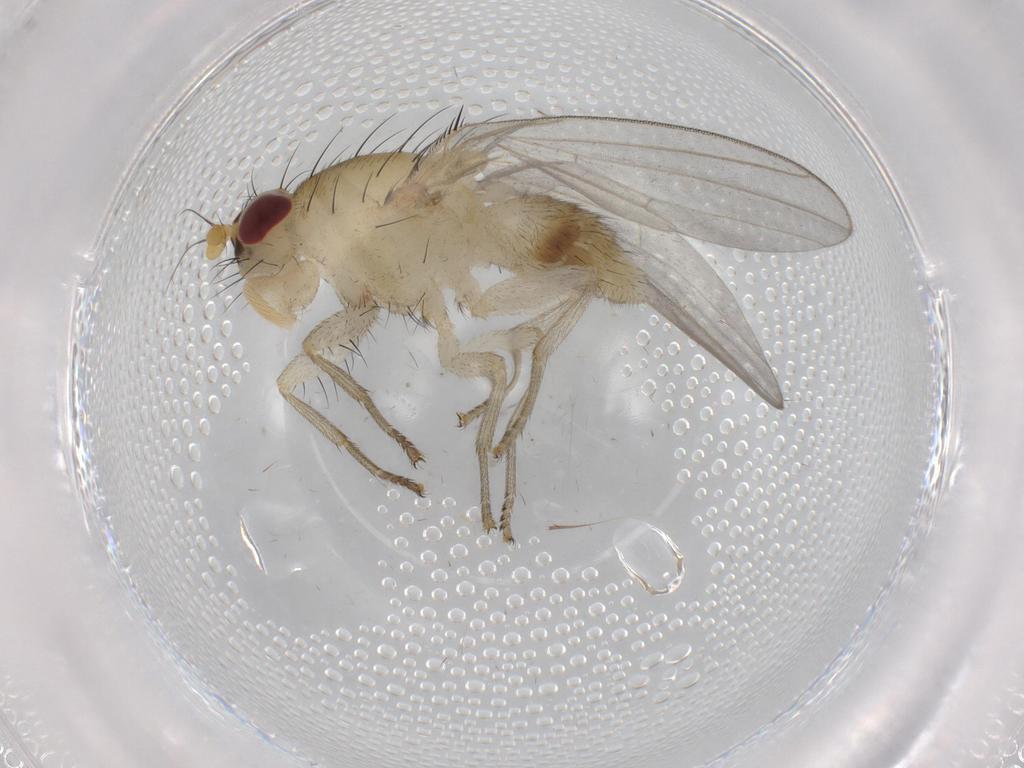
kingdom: Animalia
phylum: Arthropoda
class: Insecta
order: Diptera
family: Lauxaniidae
